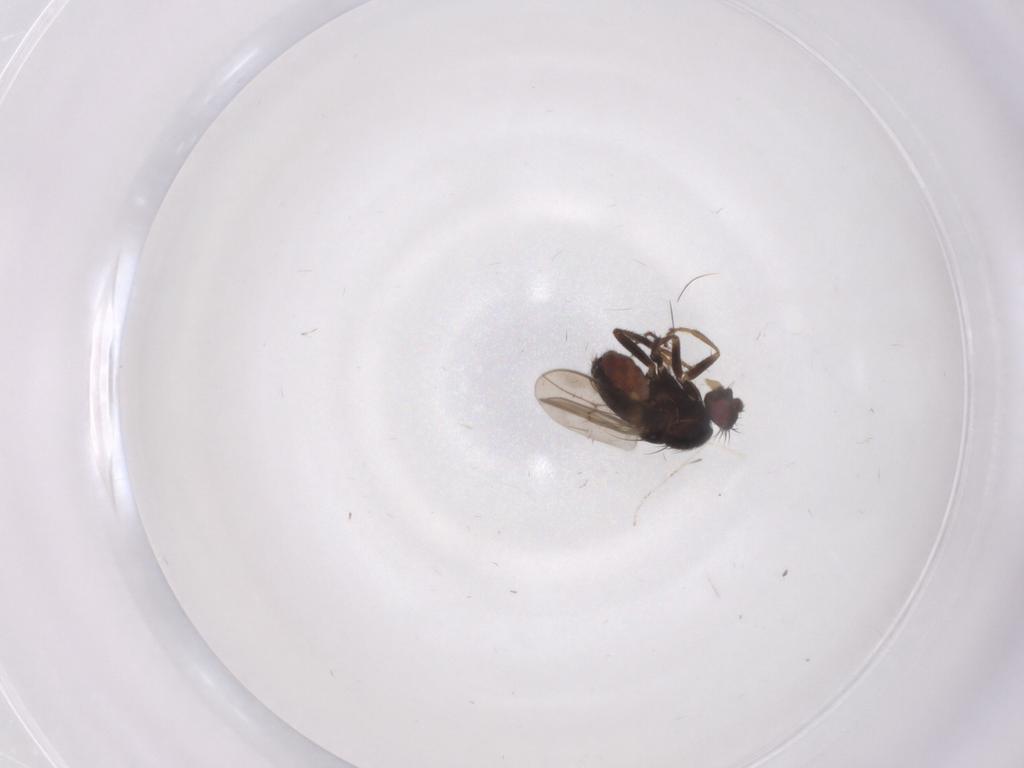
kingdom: Animalia
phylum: Arthropoda
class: Insecta
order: Diptera
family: Sphaeroceridae
